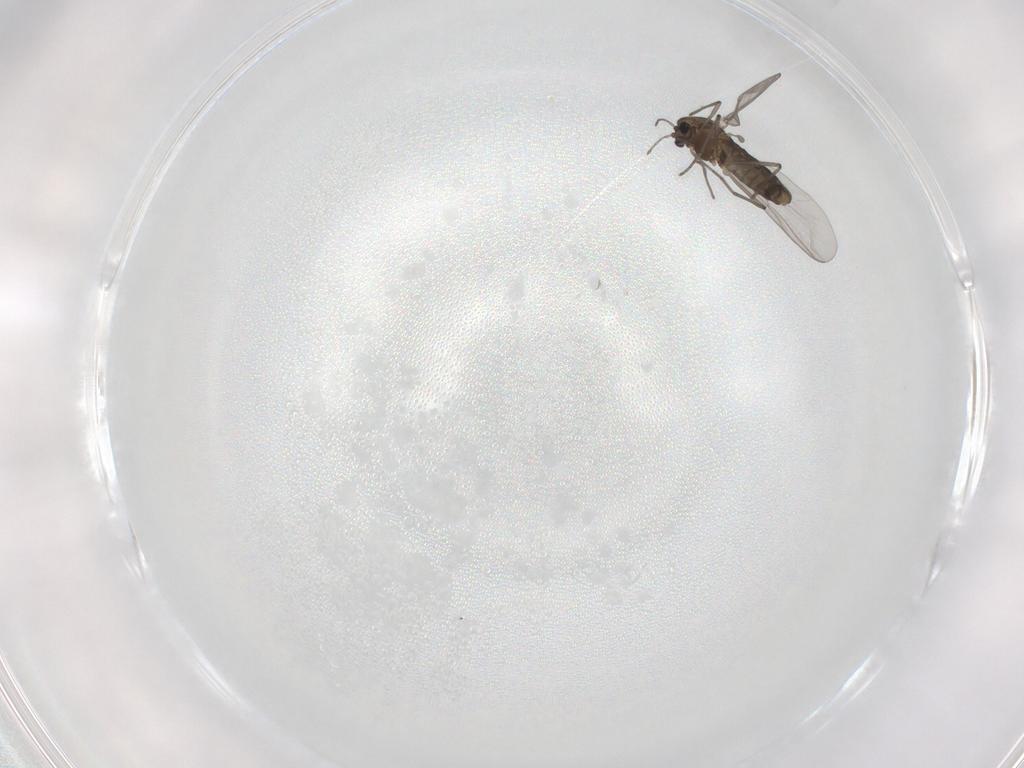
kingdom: Animalia
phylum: Arthropoda
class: Insecta
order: Diptera
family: Chironomidae
